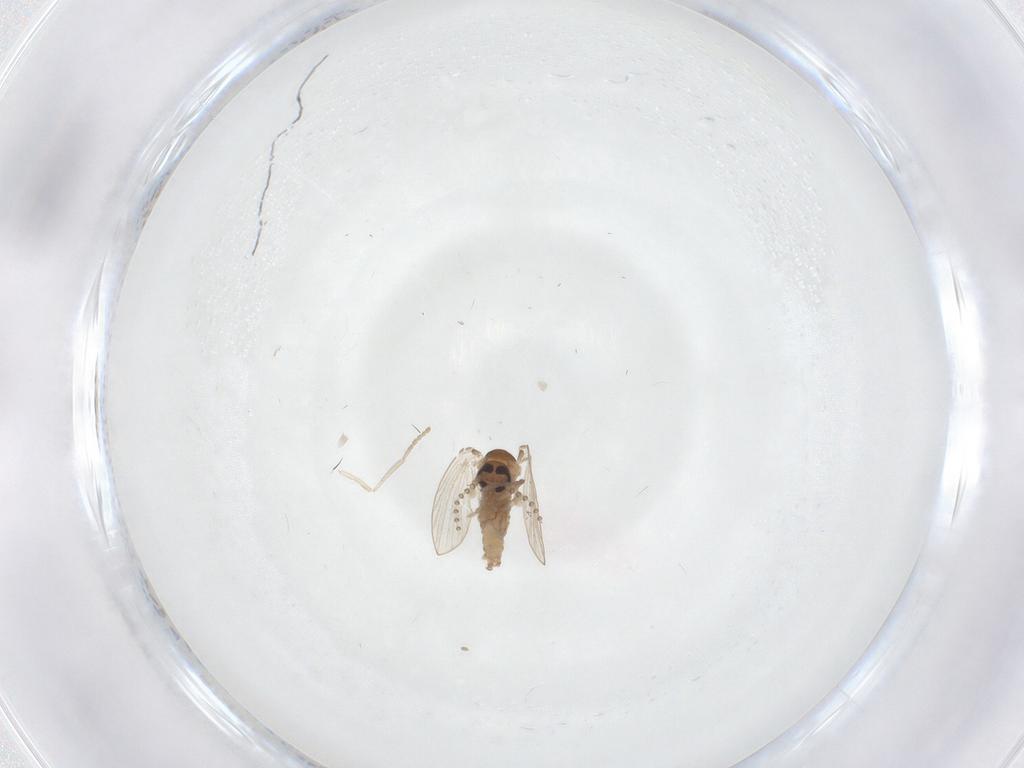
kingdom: Animalia
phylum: Arthropoda
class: Insecta
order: Diptera
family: Psychodidae
